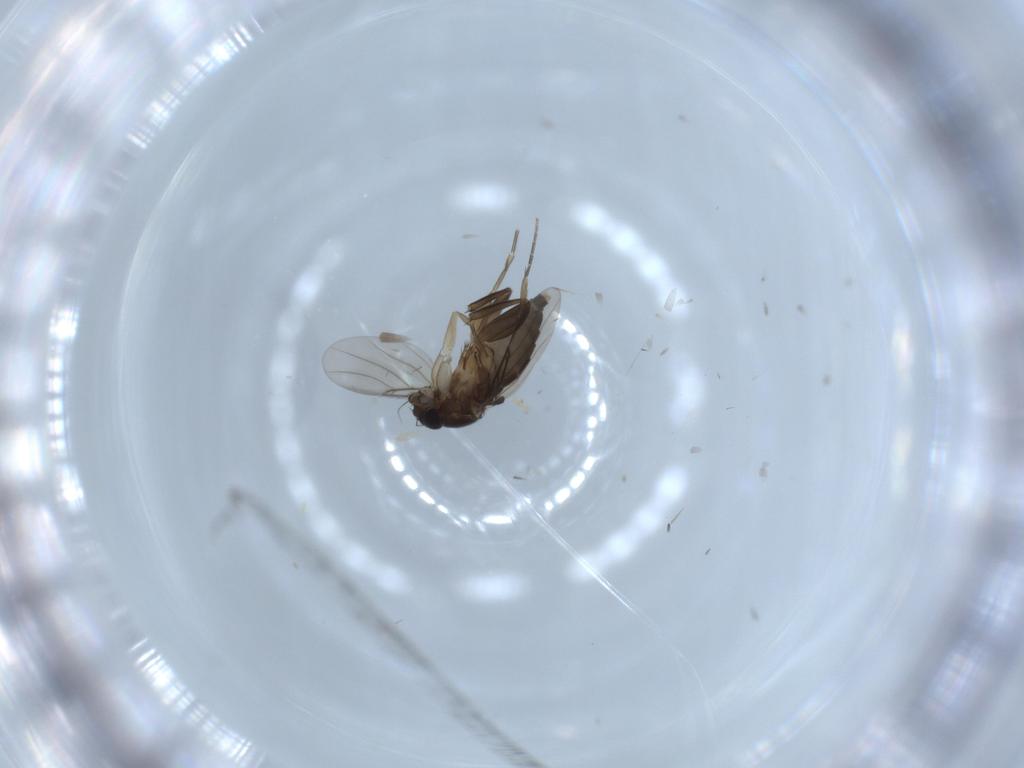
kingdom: Animalia
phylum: Arthropoda
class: Insecta
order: Diptera
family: Phoridae
